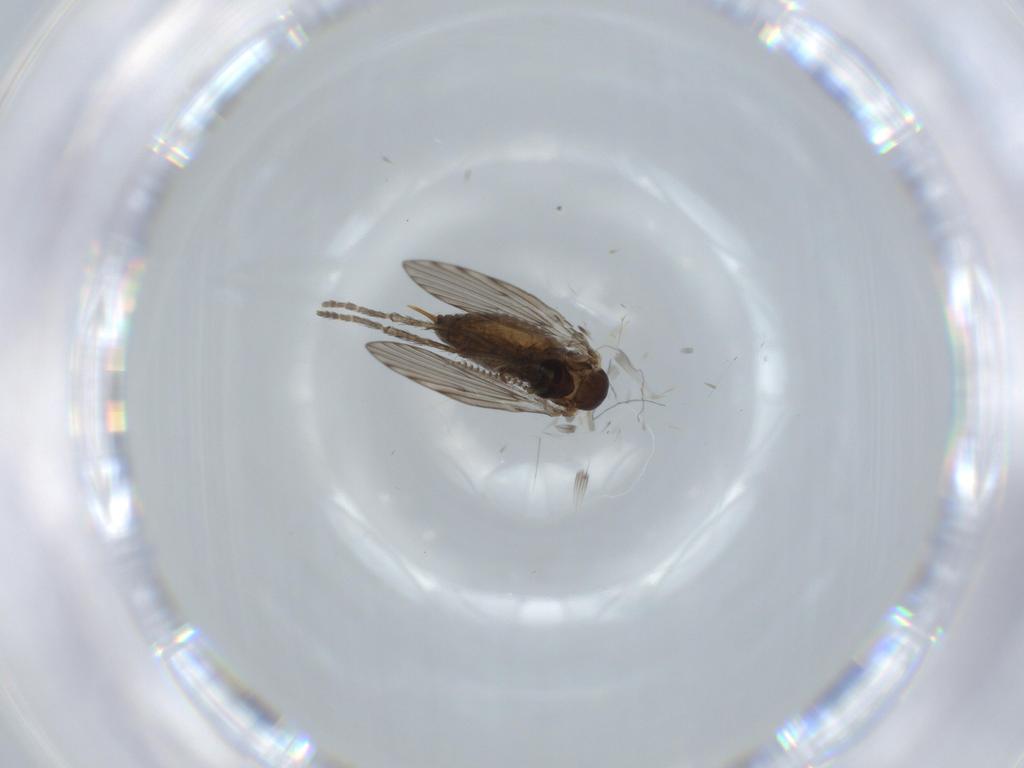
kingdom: Animalia
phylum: Arthropoda
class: Insecta
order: Diptera
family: Psychodidae
